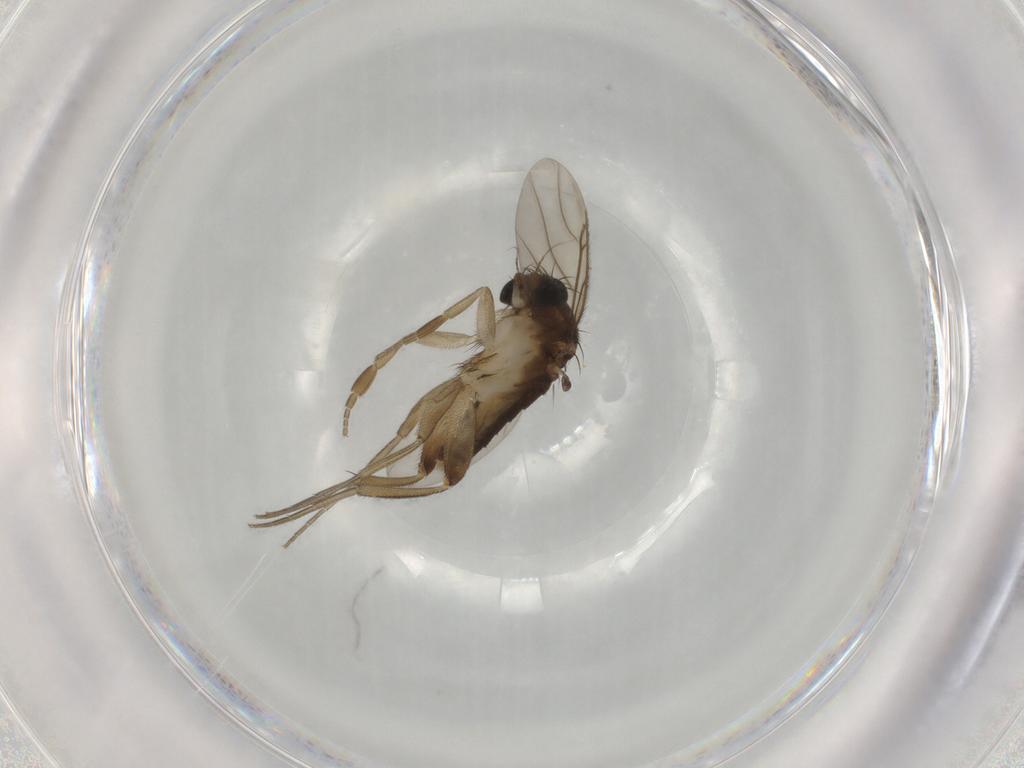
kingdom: Animalia
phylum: Arthropoda
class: Insecta
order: Diptera
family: Phoridae
